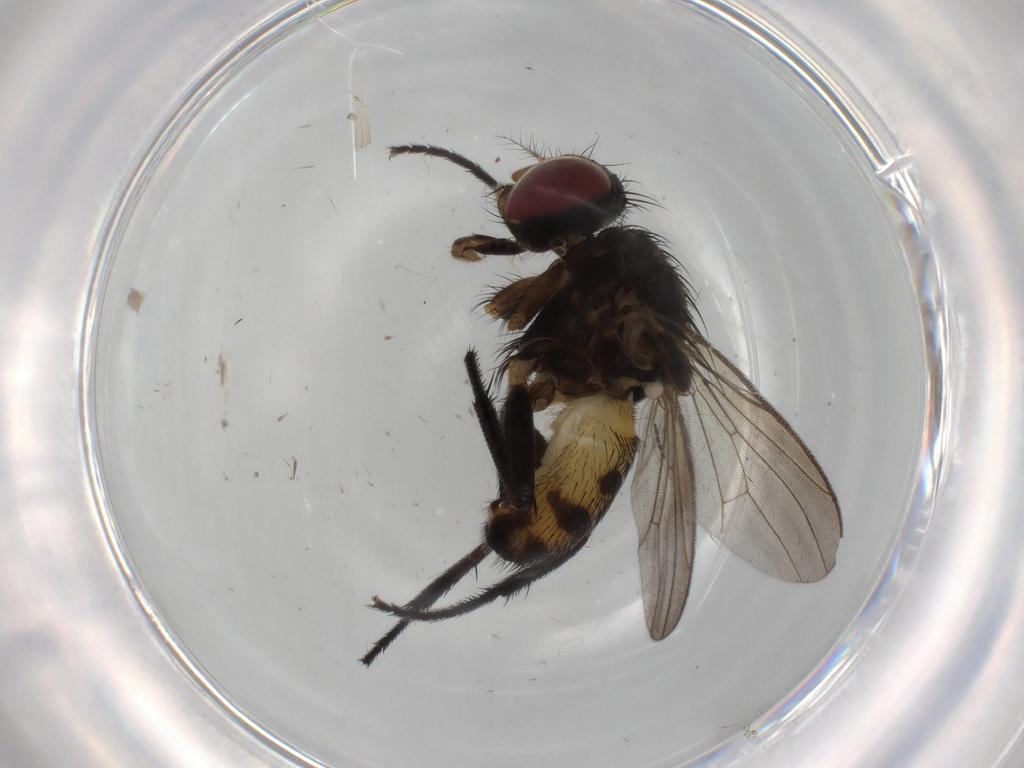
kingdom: Animalia
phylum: Arthropoda
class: Insecta
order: Diptera
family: Anthomyiidae
